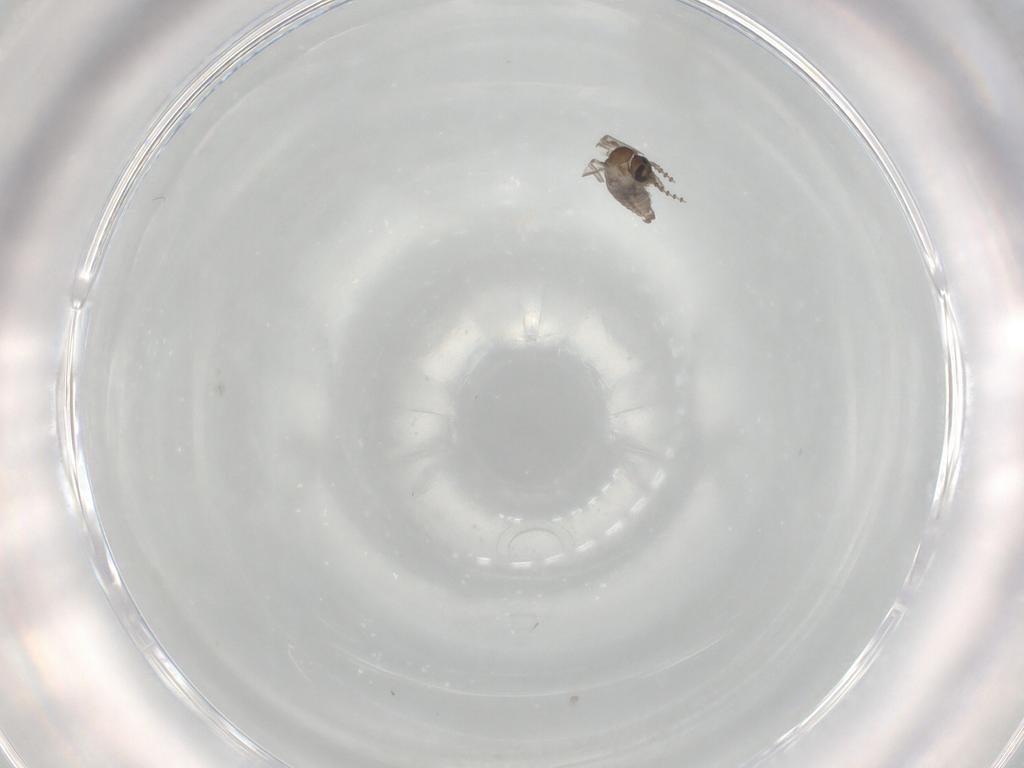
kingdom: Animalia
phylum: Arthropoda
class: Insecta
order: Diptera
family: Psychodidae
